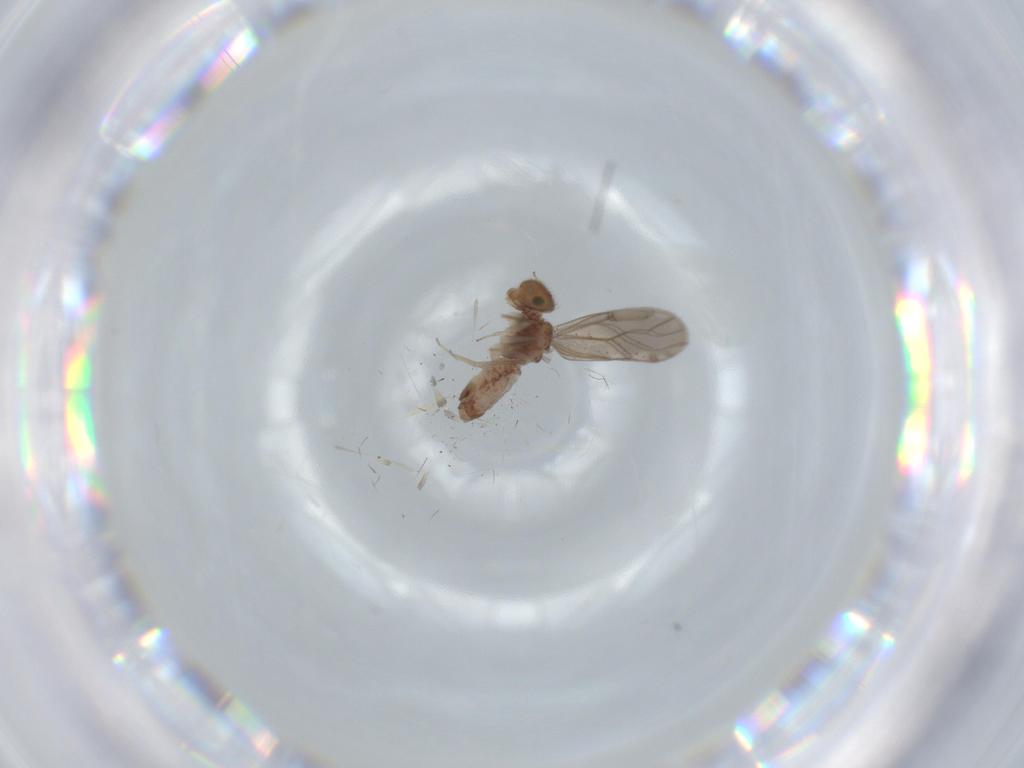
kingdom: Animalia
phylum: Arthropoda
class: Insecta
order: Psocodea
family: Ectopsocidae
